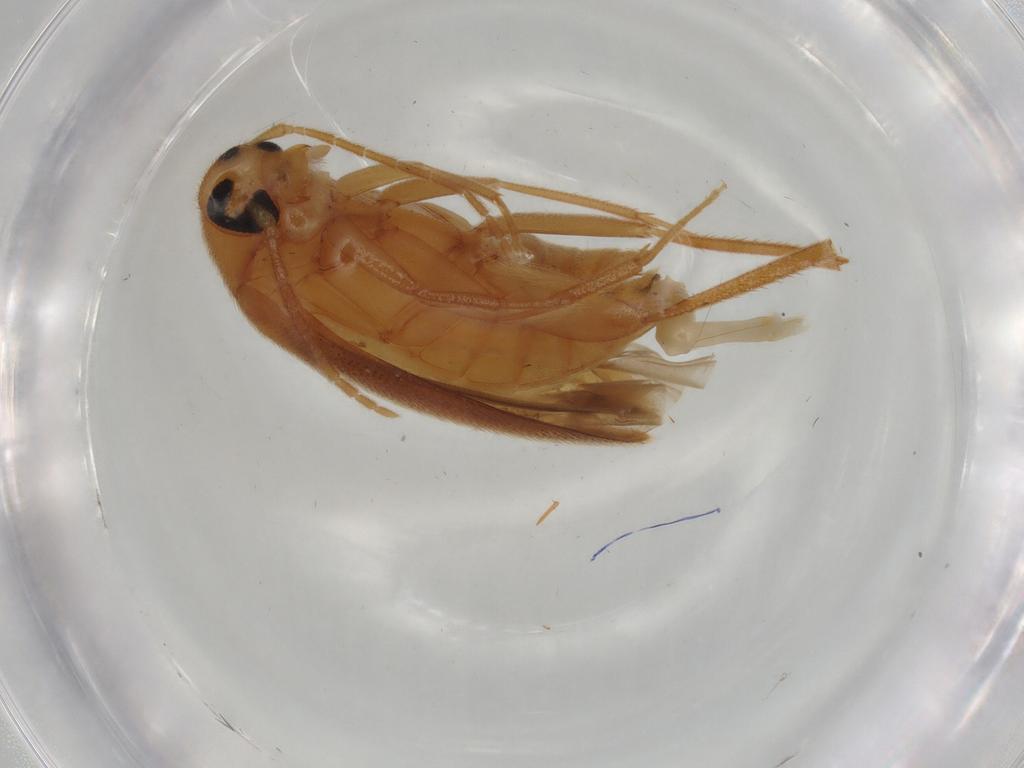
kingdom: Animalia
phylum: Arthropoda
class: Insecta
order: Coleoptera
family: Scraptiidae
